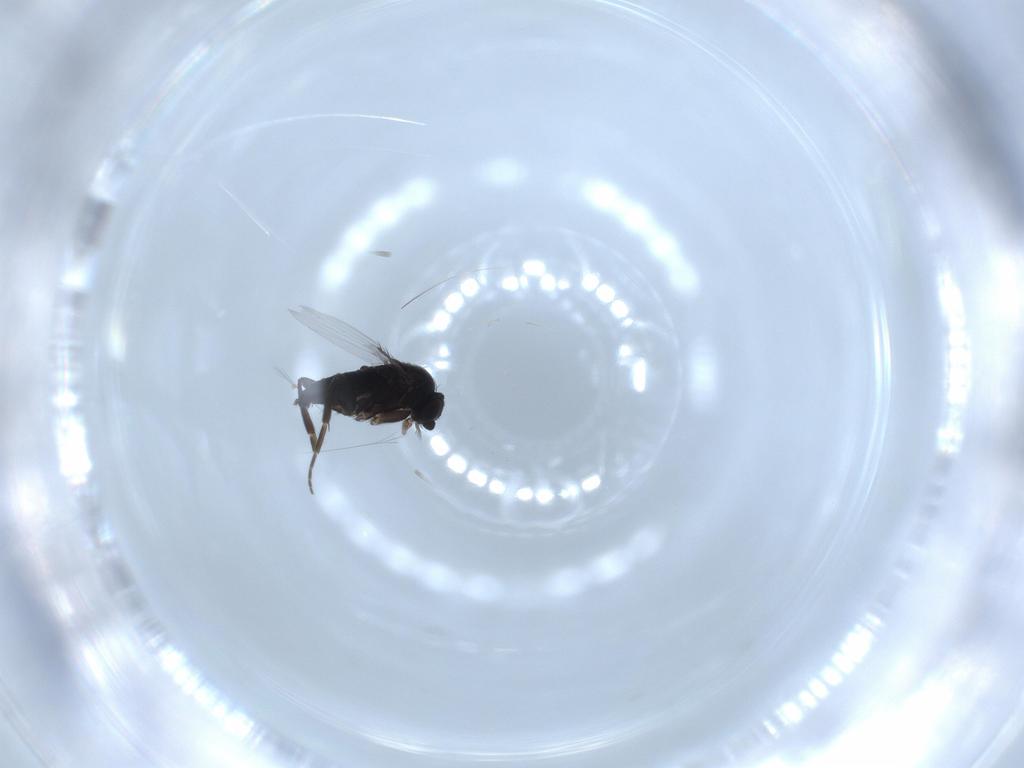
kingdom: Animalia
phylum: Arthropoda
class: Insecta
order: Diptera
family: Phoridae
